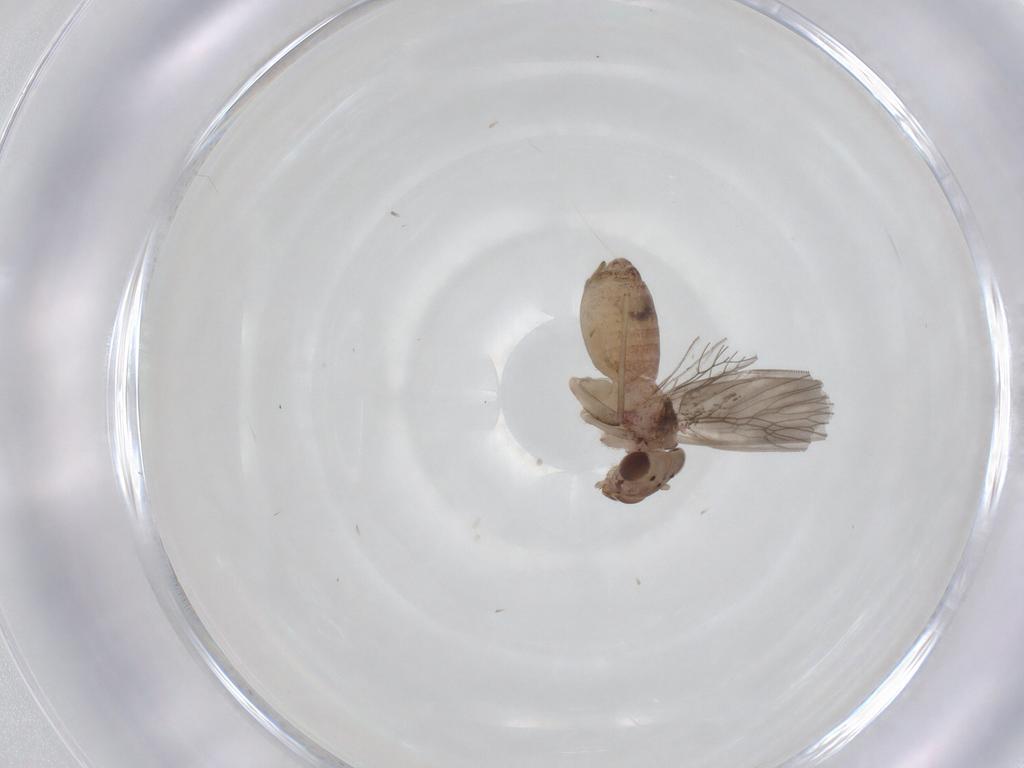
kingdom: Animalia
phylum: Arthropoda
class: Insecta
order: Psocodea
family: Lepidopsocidae
